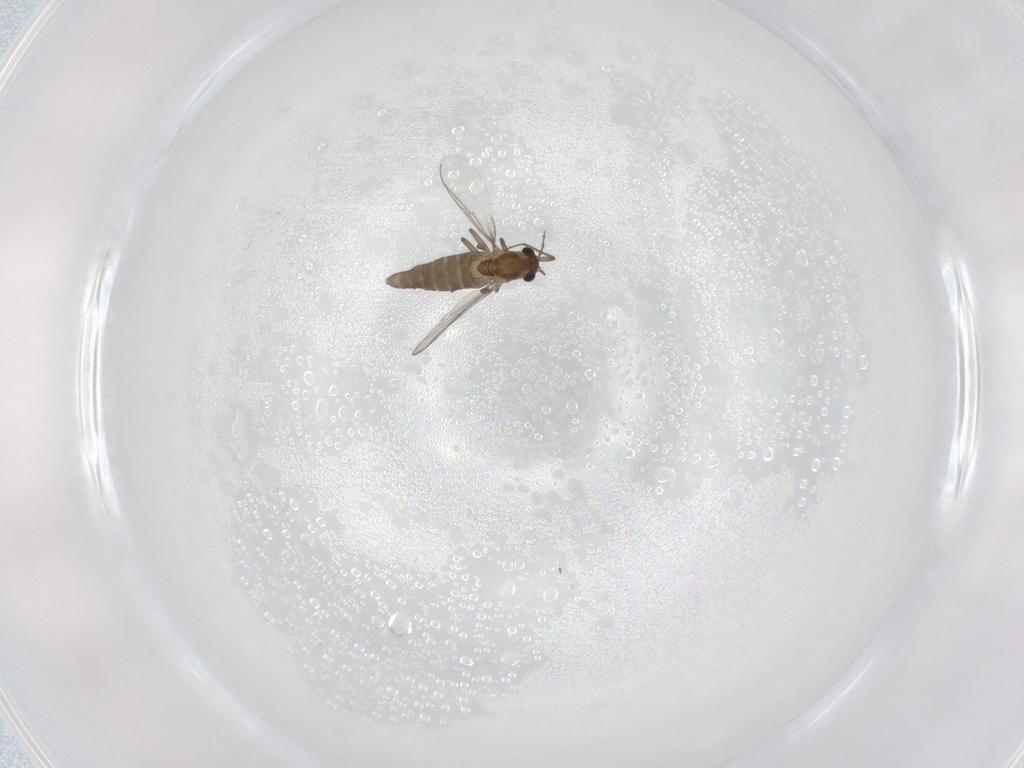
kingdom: Animalia
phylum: Arthropoda
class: Insecta
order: Diptera
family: Chironomidae
